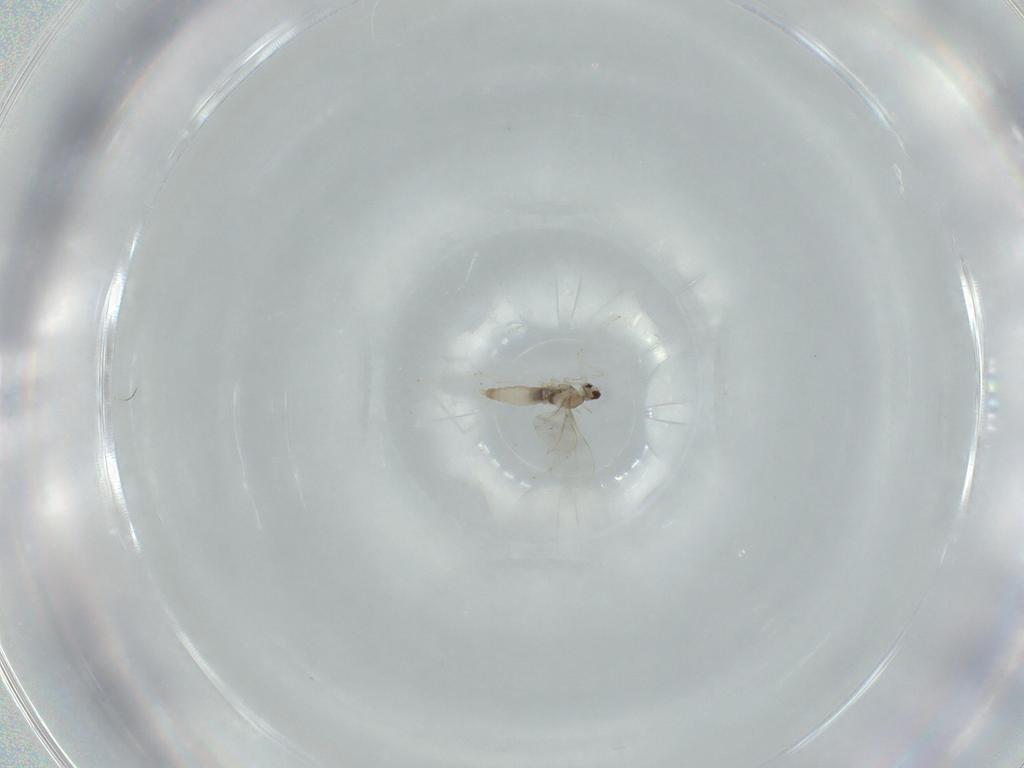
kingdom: Animalia
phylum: Arthropoda
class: Insecta
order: Diptera
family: Cecidomyiidae
